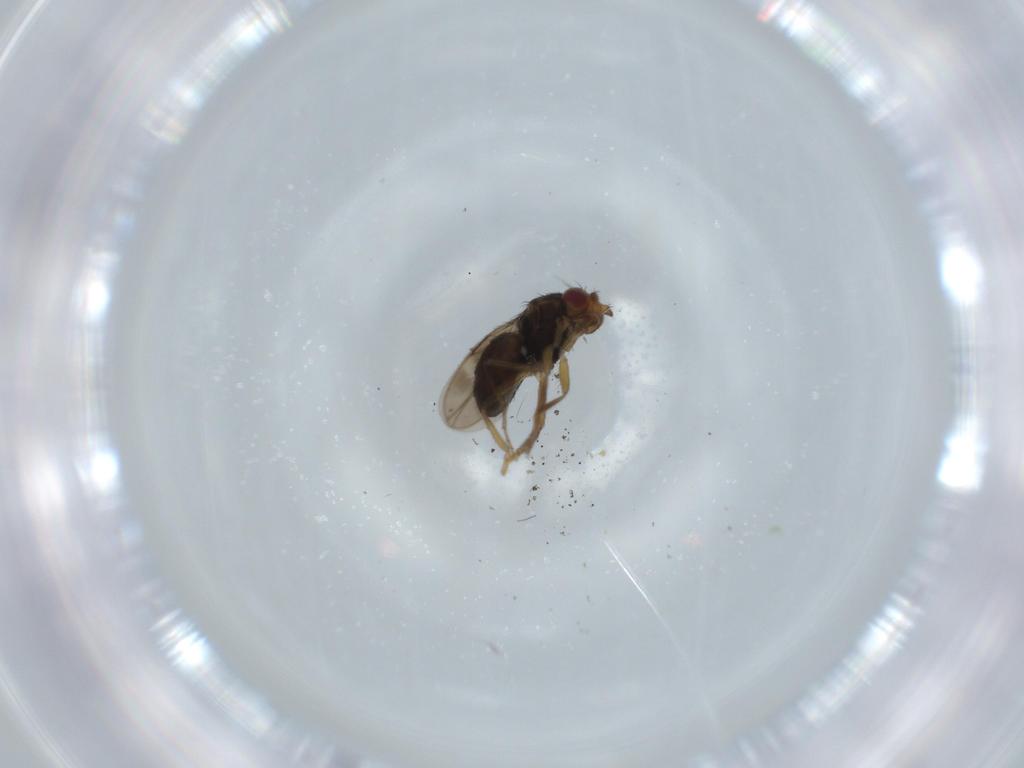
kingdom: Animalia
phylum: Arthropoda
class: Insecta
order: Diptera
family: Sphaeroceridae
